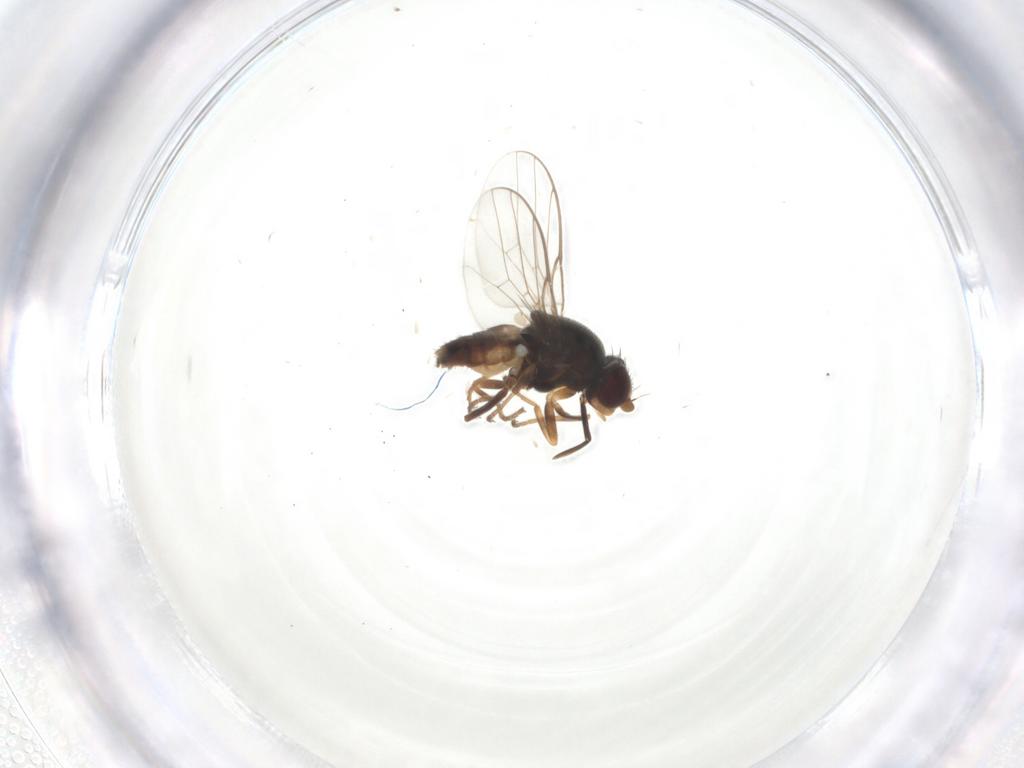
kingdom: Animalia
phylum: Arthropoda
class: Insecta
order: Diptera
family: Chloropidae
